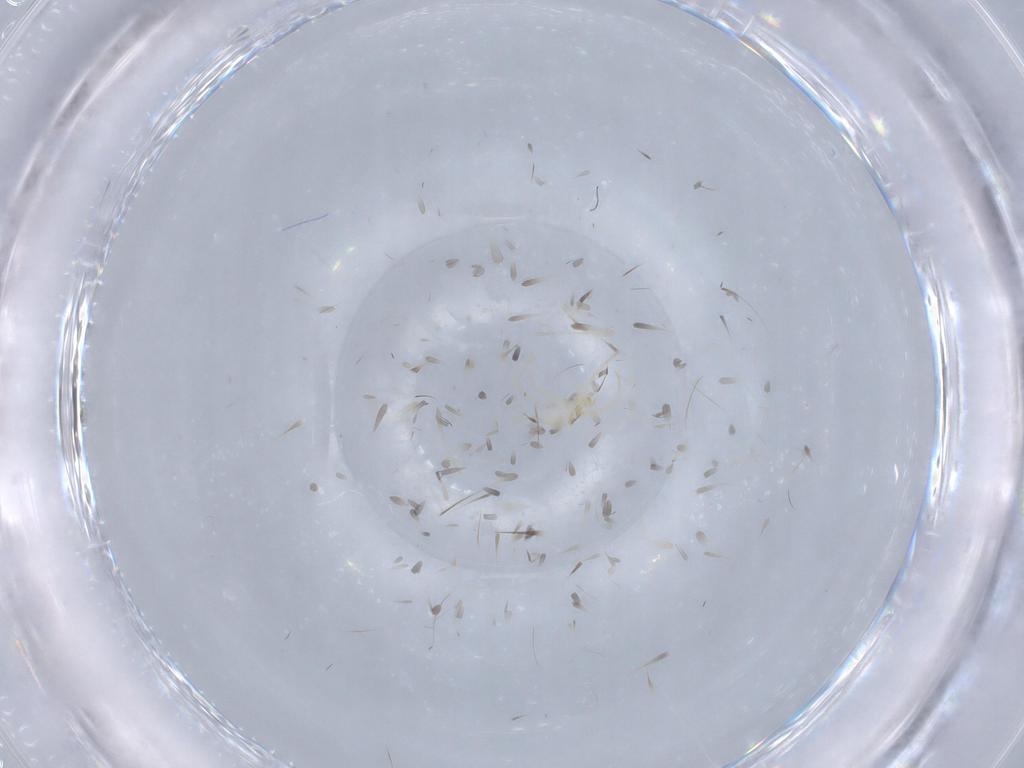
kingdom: Animalia
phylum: Arthropoda
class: Arachnida
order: Trombidiformes
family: Erythraeidae
